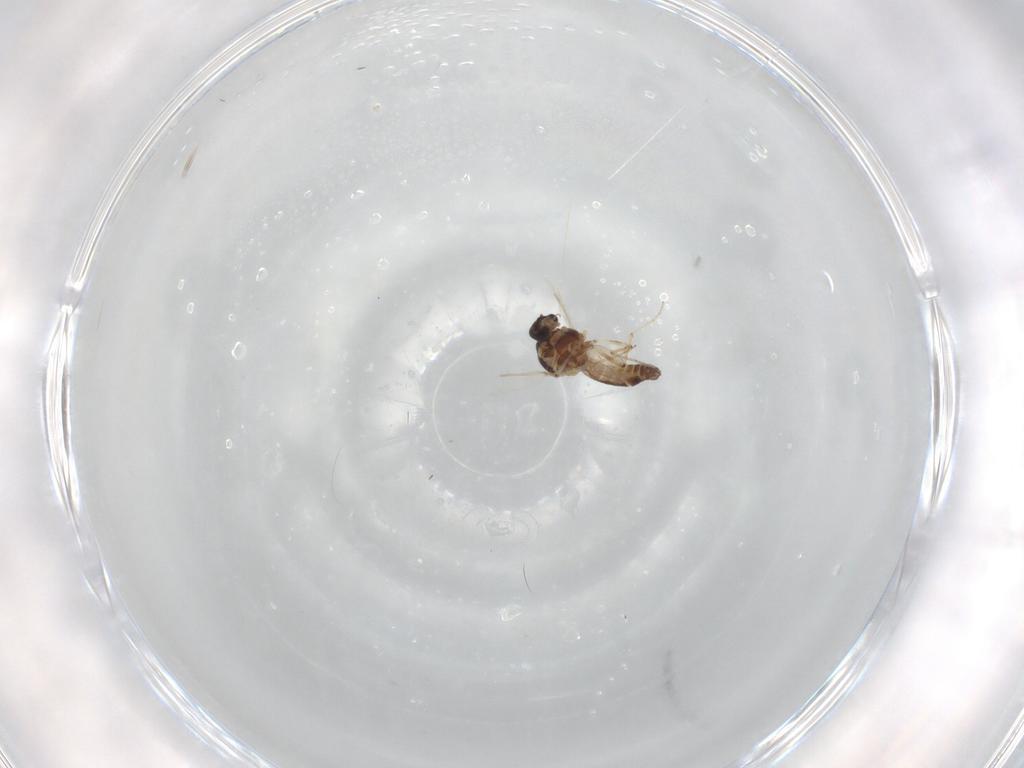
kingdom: Animalia
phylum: Arthropoda
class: Insecta
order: Diptera
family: Ceratopogonidae
